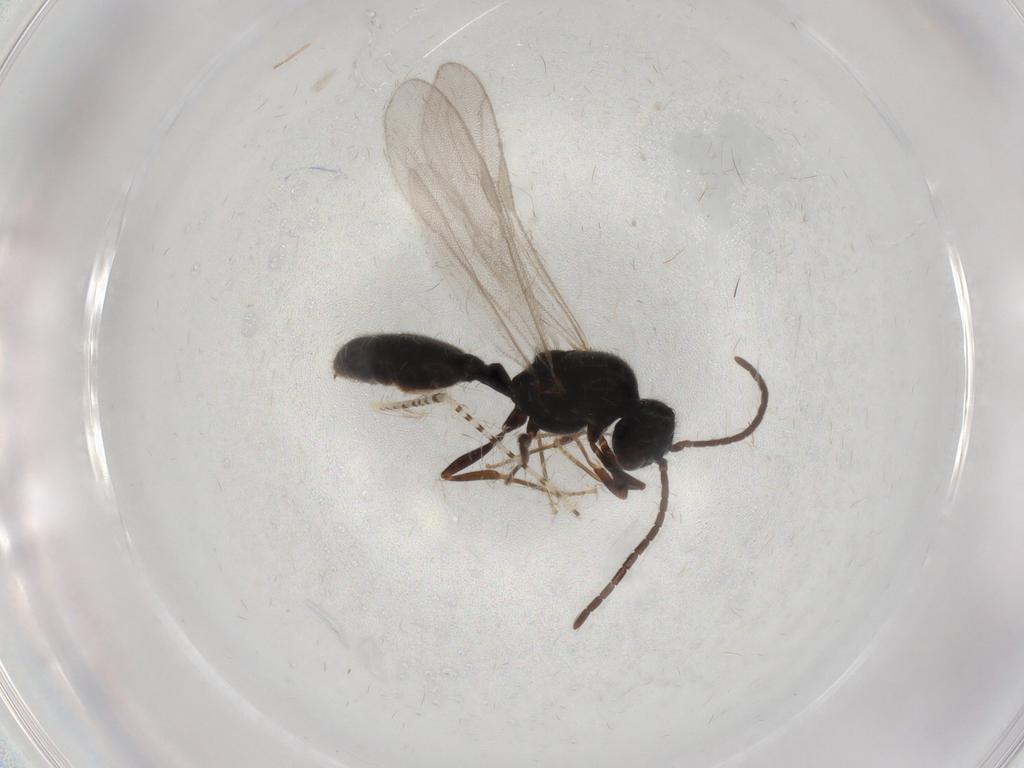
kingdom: Animalia
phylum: Arthropoda
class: Insecta
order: Hymenoptera
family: Formicidae
